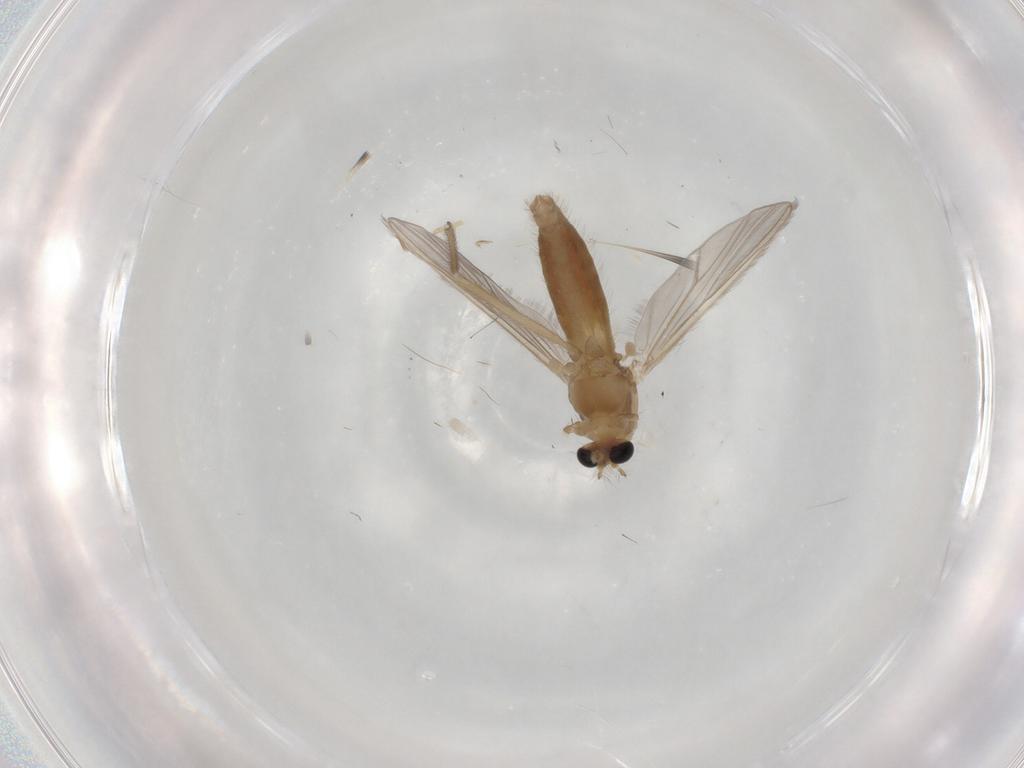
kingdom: Animalia
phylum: Arthropoda
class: Insecta
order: Diptera
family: Chironomidae
